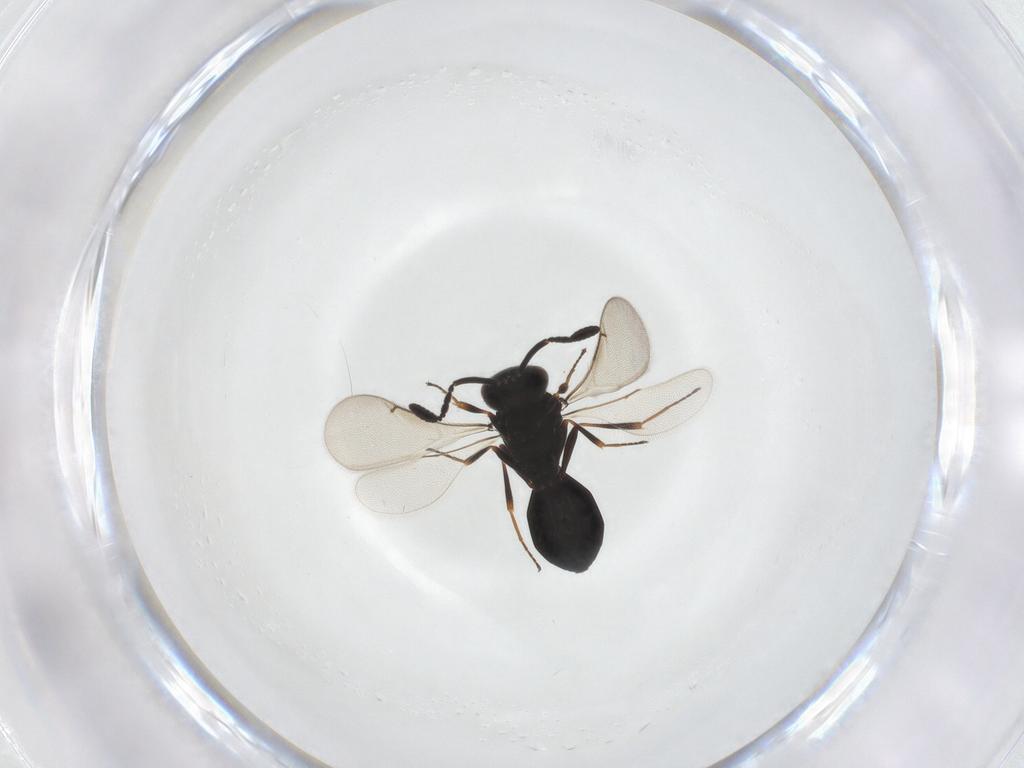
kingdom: Animalia
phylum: Arthropoda
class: Insecta
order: Hymenoptera
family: Scelionidae
